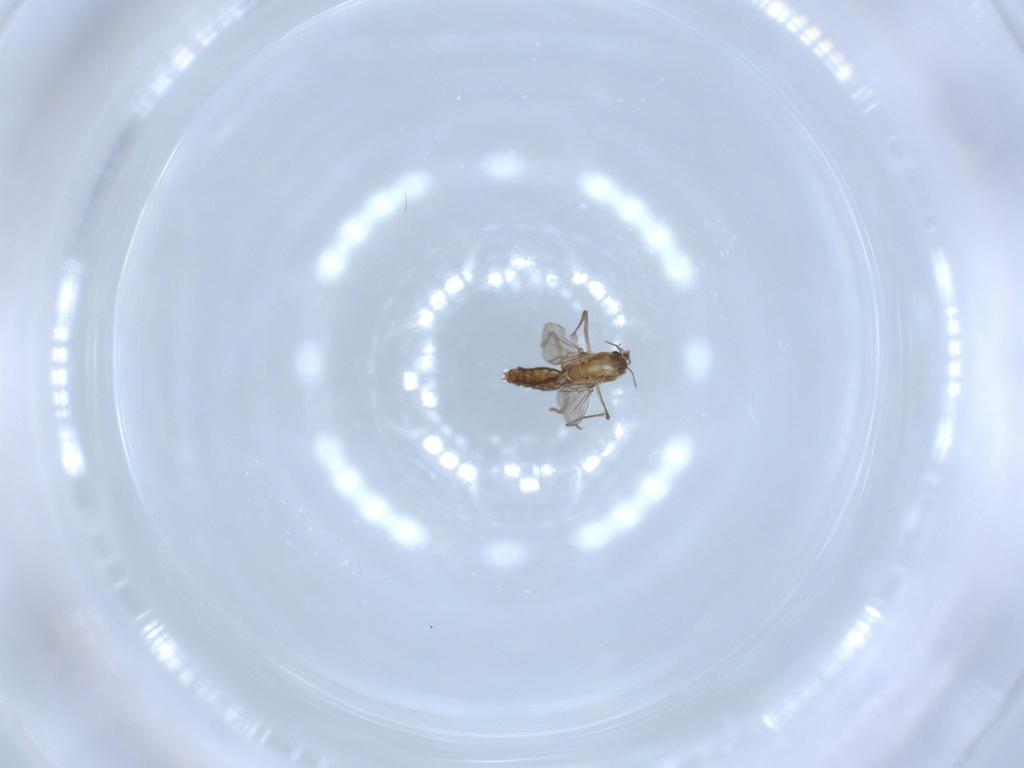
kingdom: Animalia
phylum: Arthropoda
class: Insecta
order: Diptera
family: Chironomidae
